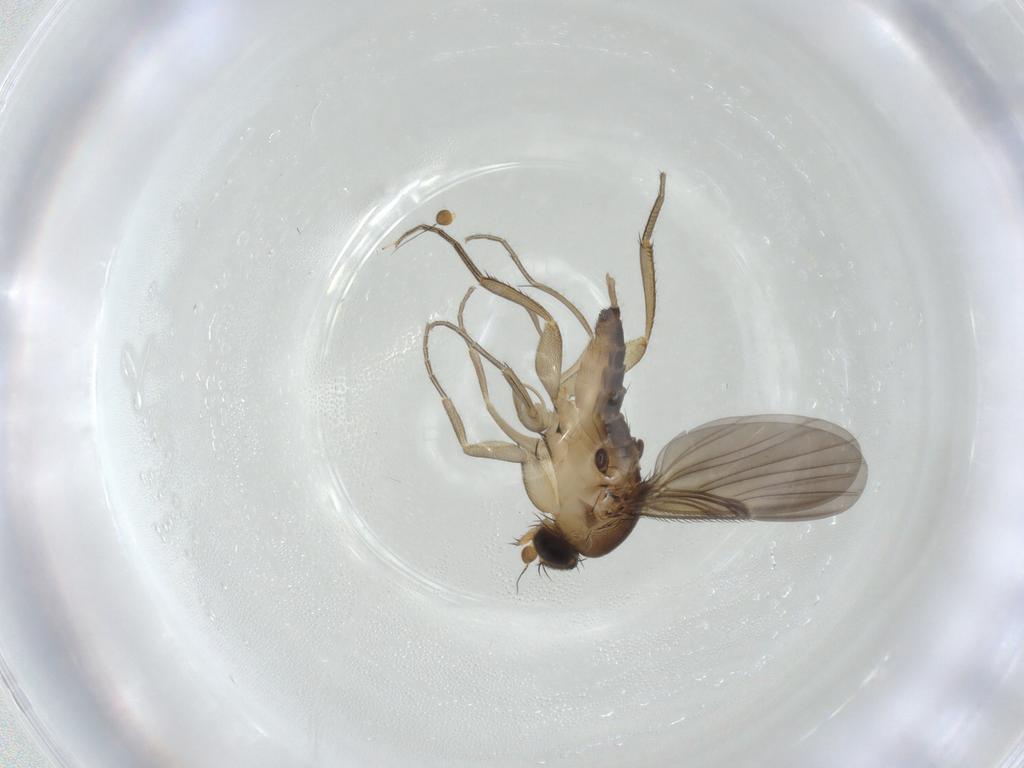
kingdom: Animalia
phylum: Arthropoda
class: Insecta
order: Diptera
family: Ceratopogonidae
